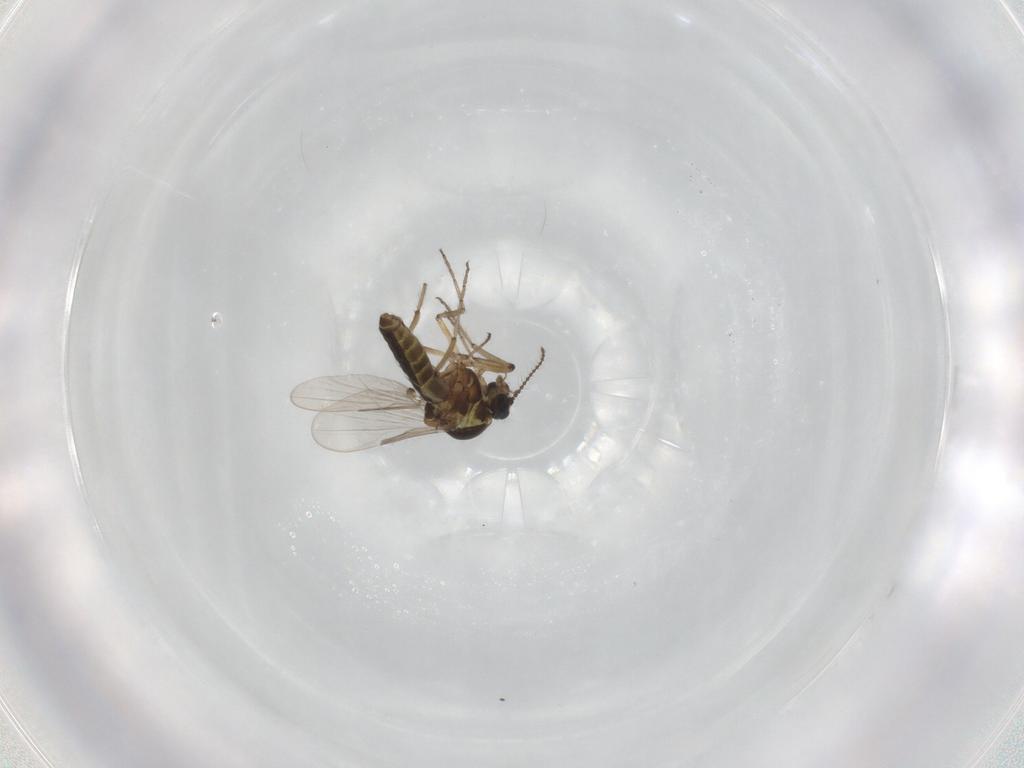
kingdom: Animalia
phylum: Arthropoda
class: Insecta
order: Diptera
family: Ceratopogonidae
